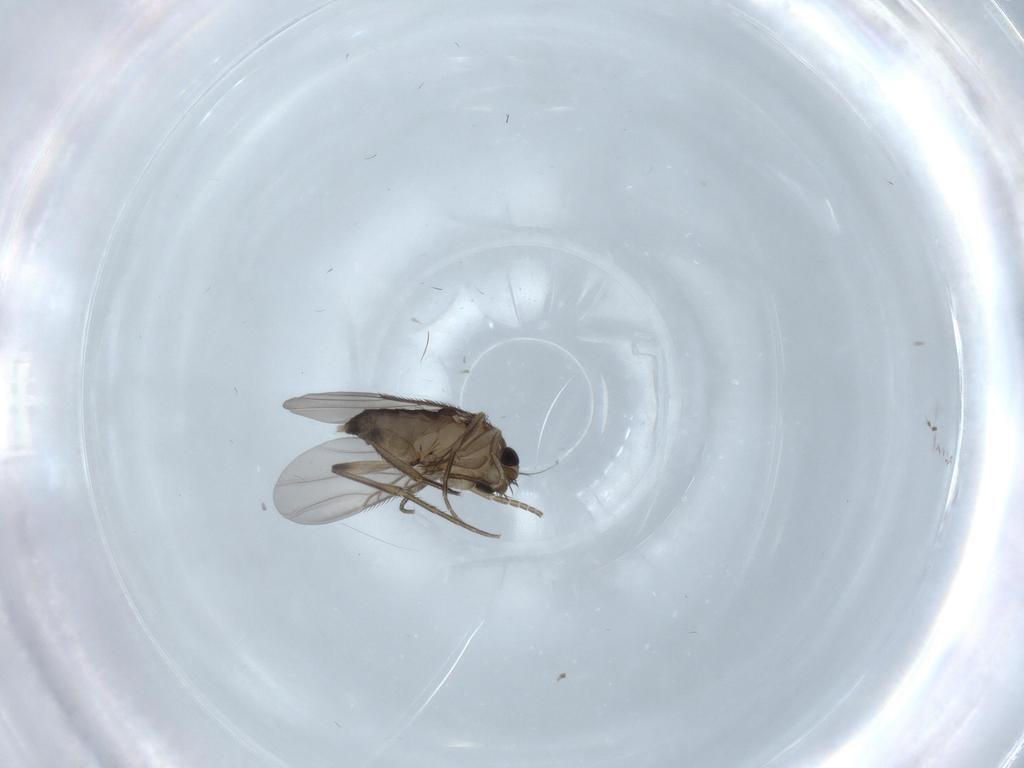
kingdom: Animalia
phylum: Arthropoda
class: Insecta
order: Diptera
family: Phoridae
